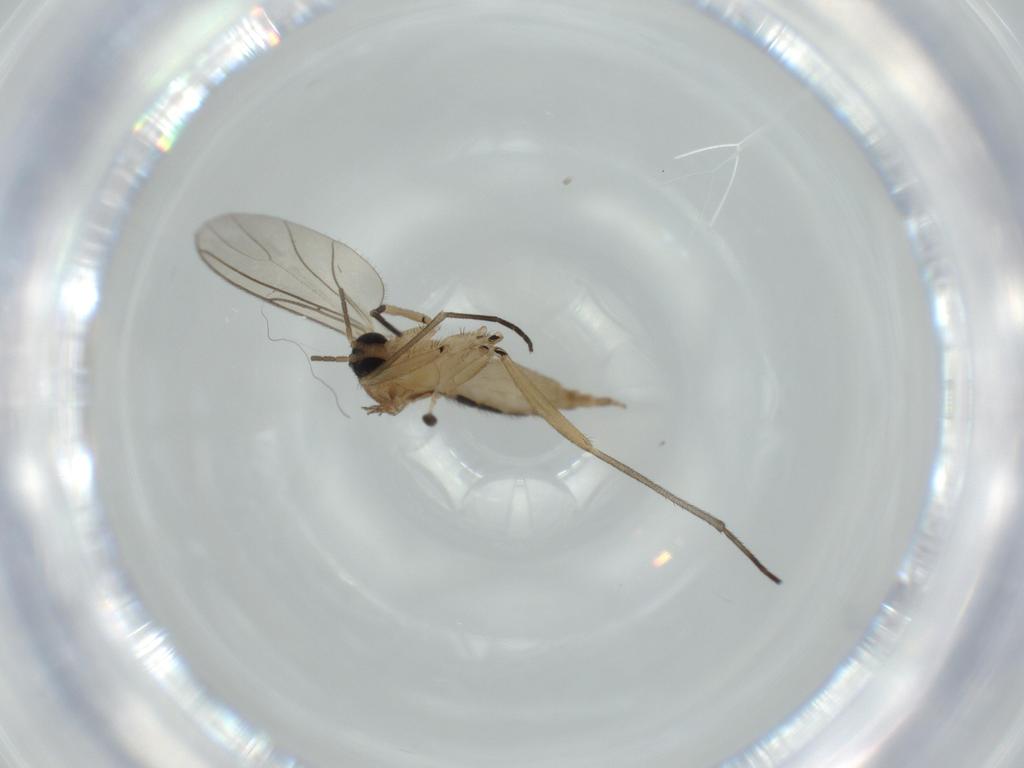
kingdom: Animalia
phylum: Arthropoda
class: Insecta
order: Diptera
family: Sciaridae
